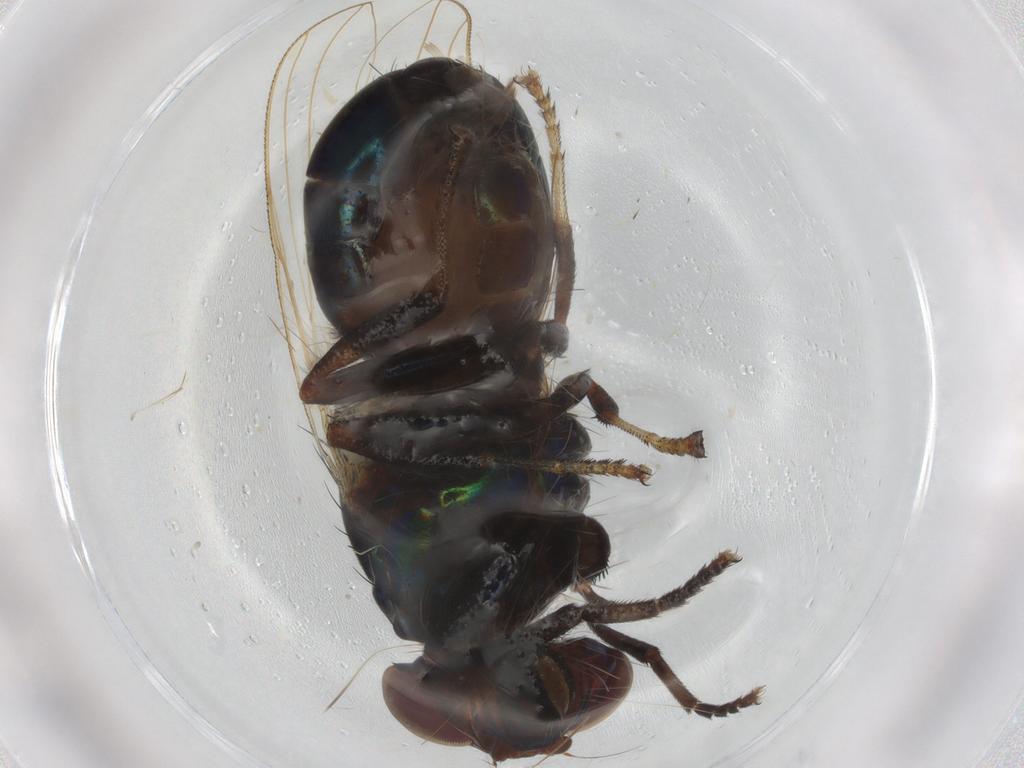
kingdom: Animalia
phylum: Arthropoda
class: Insecta
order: Diptera
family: Ulidiidae
